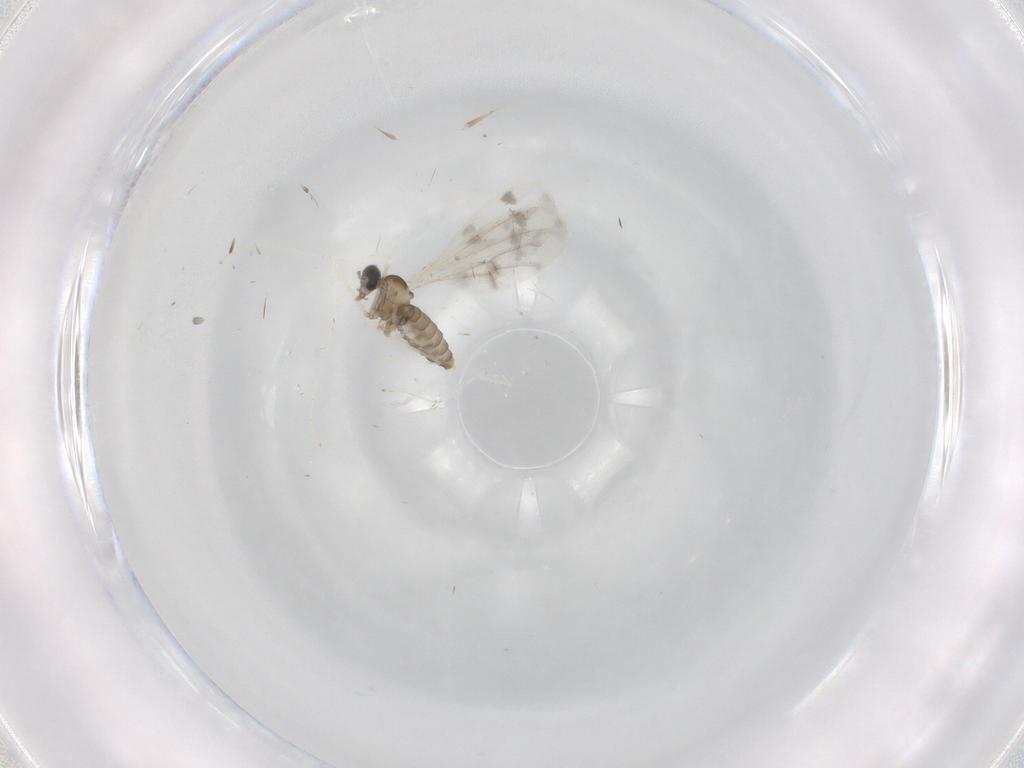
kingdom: Animalia
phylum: Arthropoda
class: Insecta
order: Diptera
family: Cecidomyiidae
